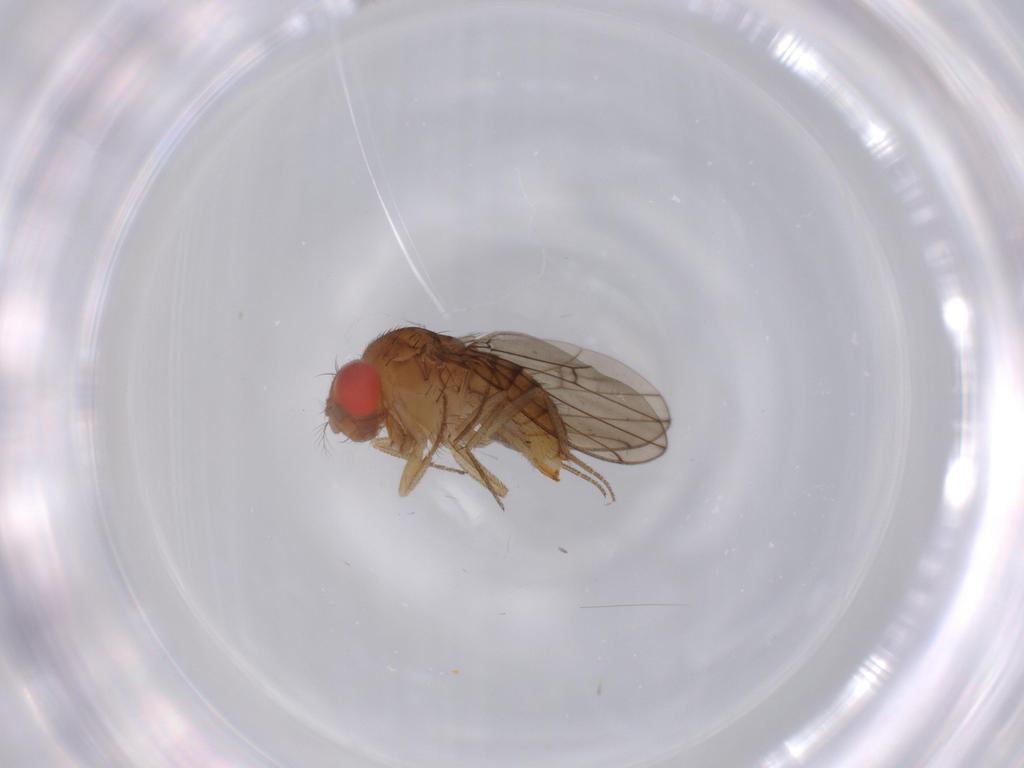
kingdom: Animalia
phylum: Arthropoda
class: Insecta
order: Diptera
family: Drosophilidae
